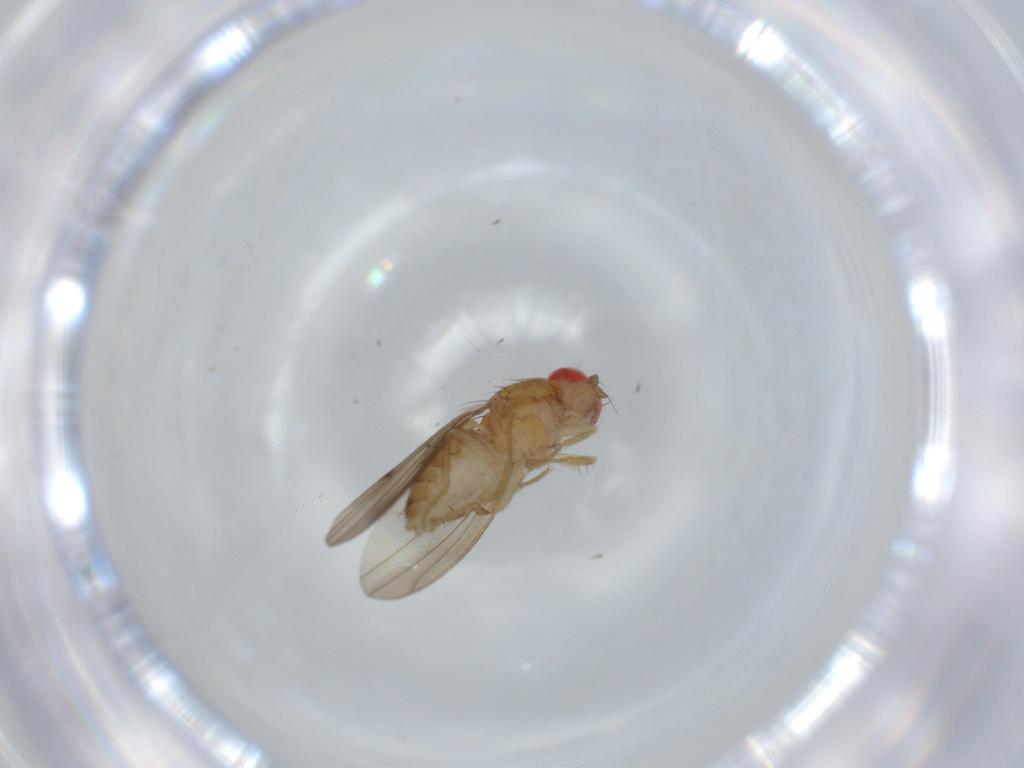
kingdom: Animalia
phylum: Arthropoda
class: Insecta
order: Diptera
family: Drosophilidae
